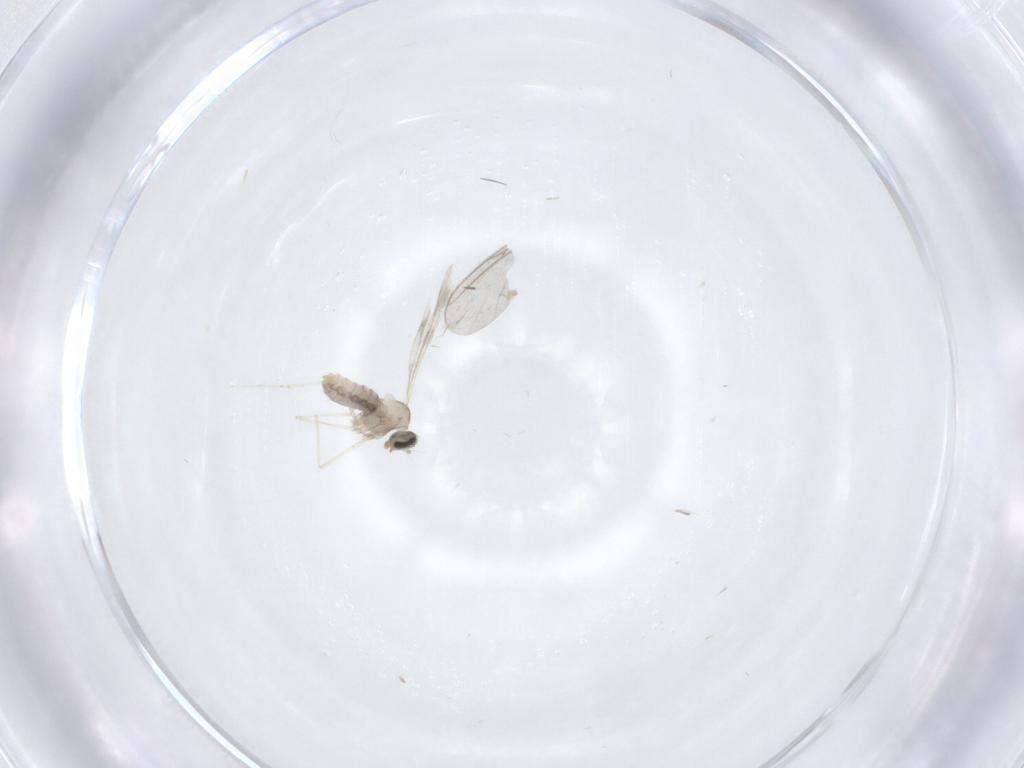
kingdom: Animalia
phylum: Arthropoda
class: Insecta
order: Diptera
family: Cecidomyiidae
